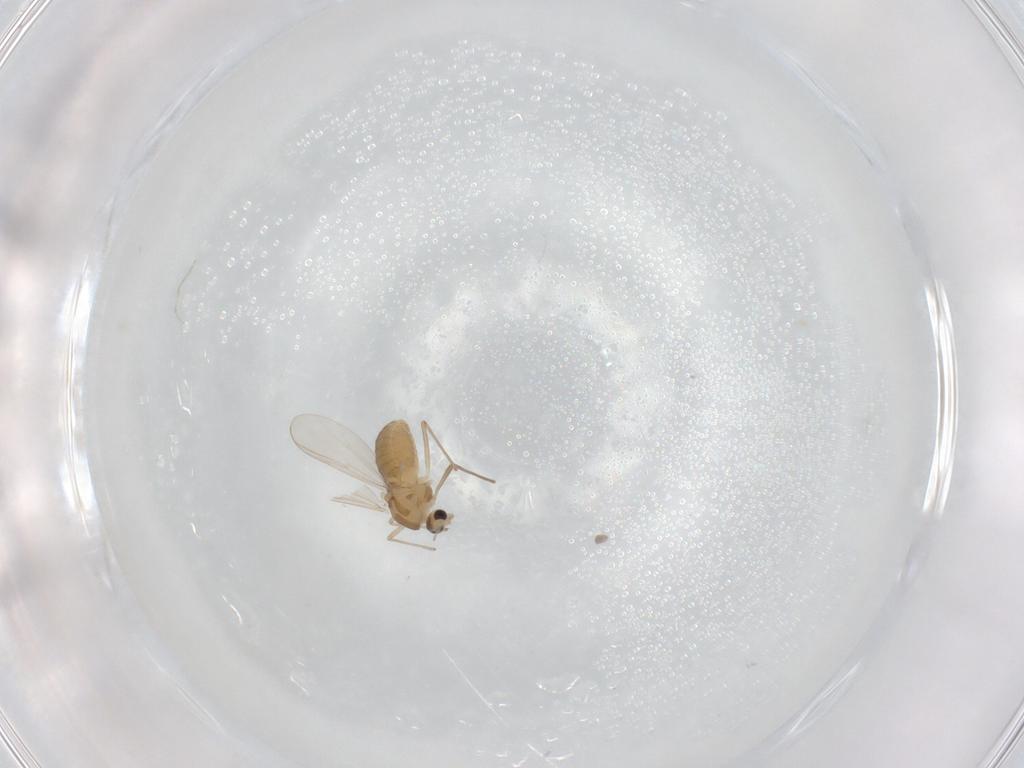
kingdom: Animalia
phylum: Arthropoda
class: Insecta
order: Diptera
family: Chironomidae
